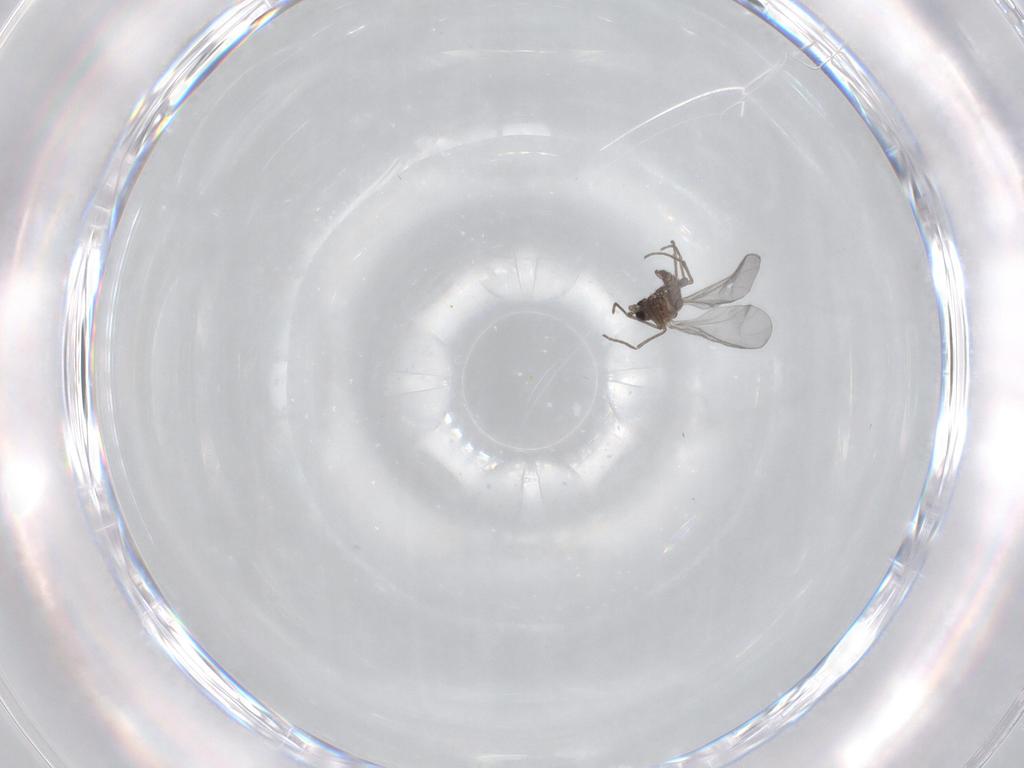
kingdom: Animalia
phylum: Arthropoda
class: Insecta
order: Diptera
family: Sciaridae
